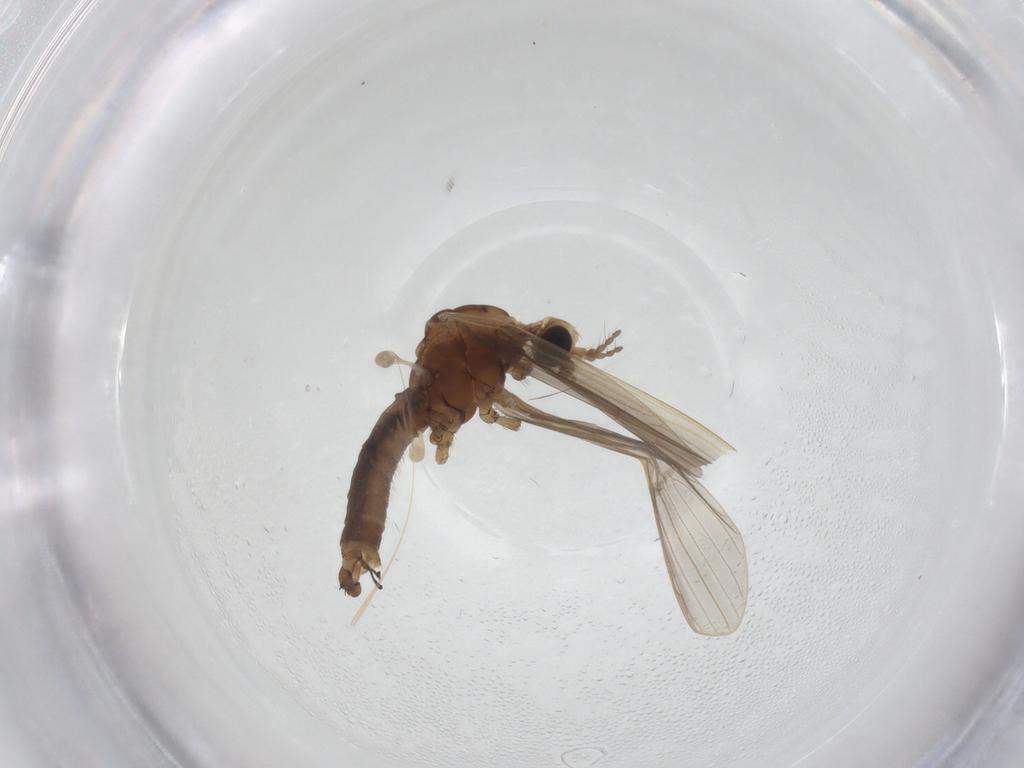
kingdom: Animalia
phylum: Arthropoda
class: Insecta
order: Diptera
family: Limoniidae
